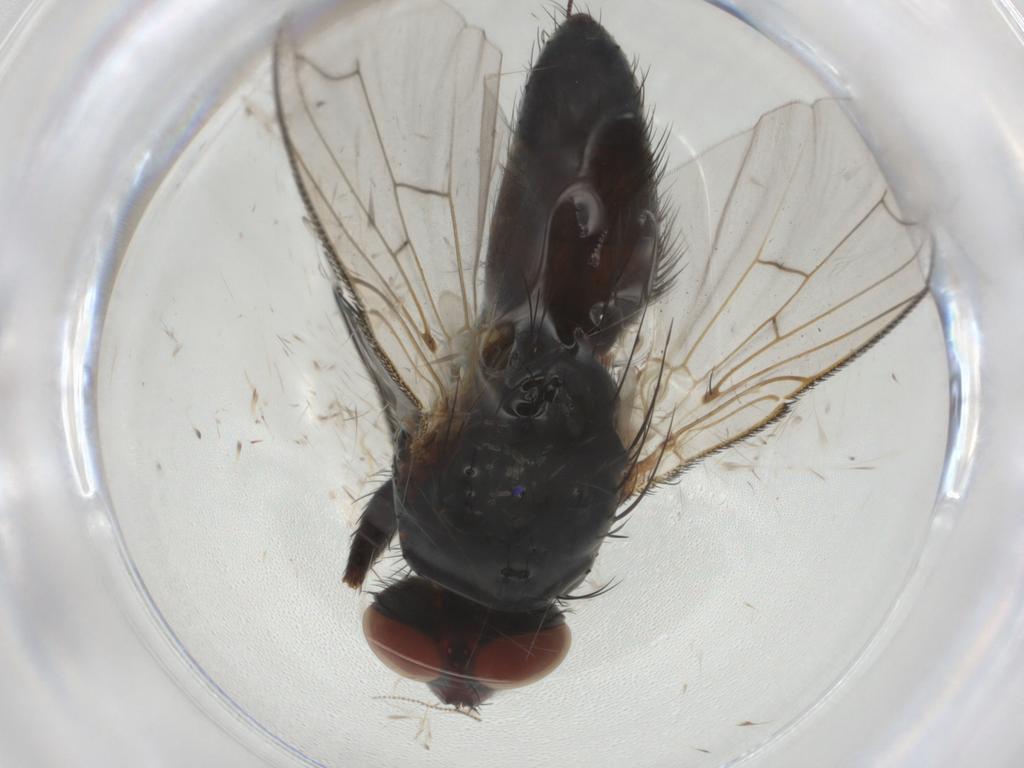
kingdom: Animalia
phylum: Arthropoda
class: Insecta
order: Diptera
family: Tachinidae
